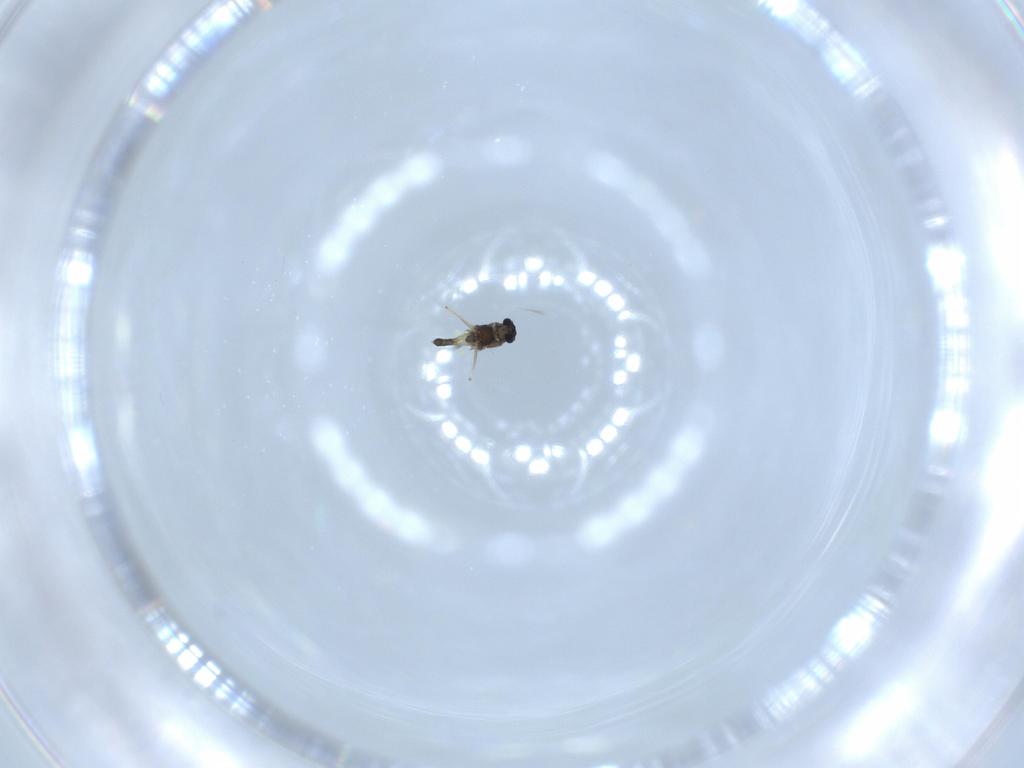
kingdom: Animalia
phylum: Arthropoda
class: Insecta
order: Diptera
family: Chironomidae
